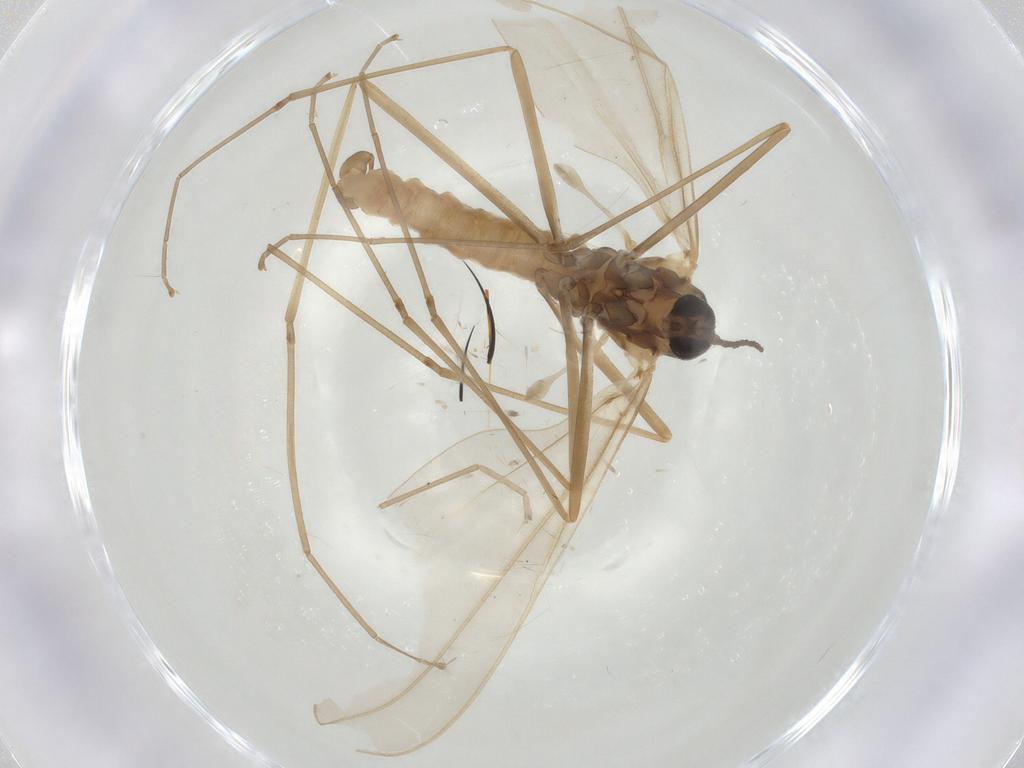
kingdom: Animalia
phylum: Arthropoda
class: Insecta
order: Diptera
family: Cecidomyiidae
